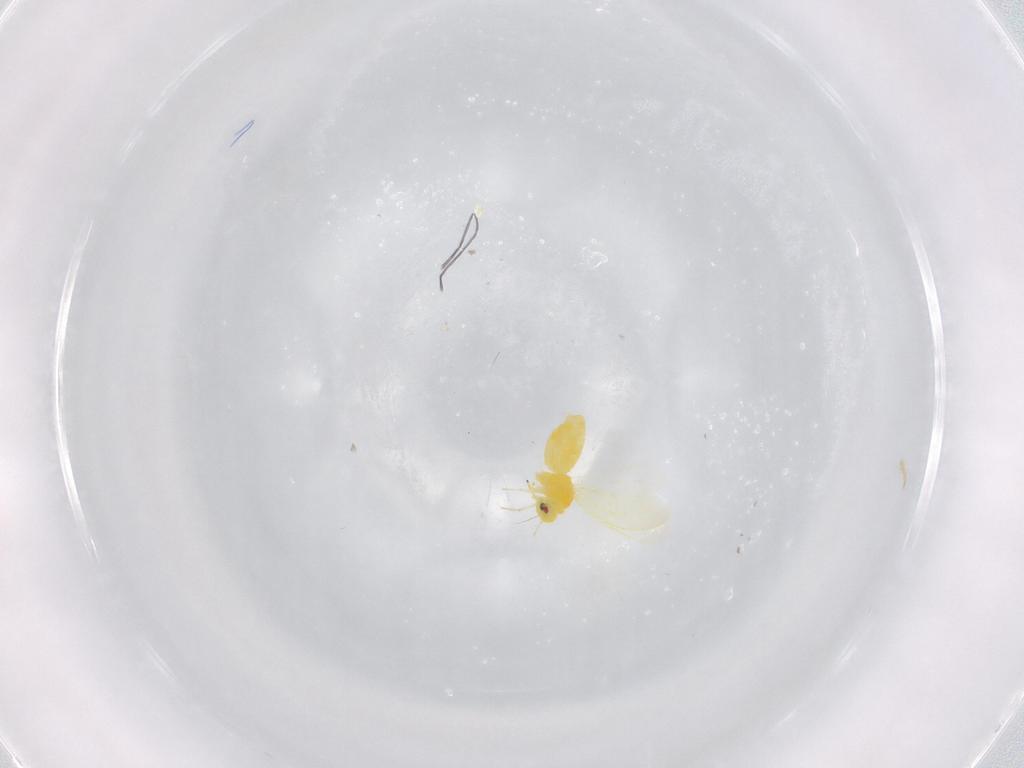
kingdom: Animalia
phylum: Arthropoda
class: Insecta
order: Hemiptera
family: Aleyrodidae
